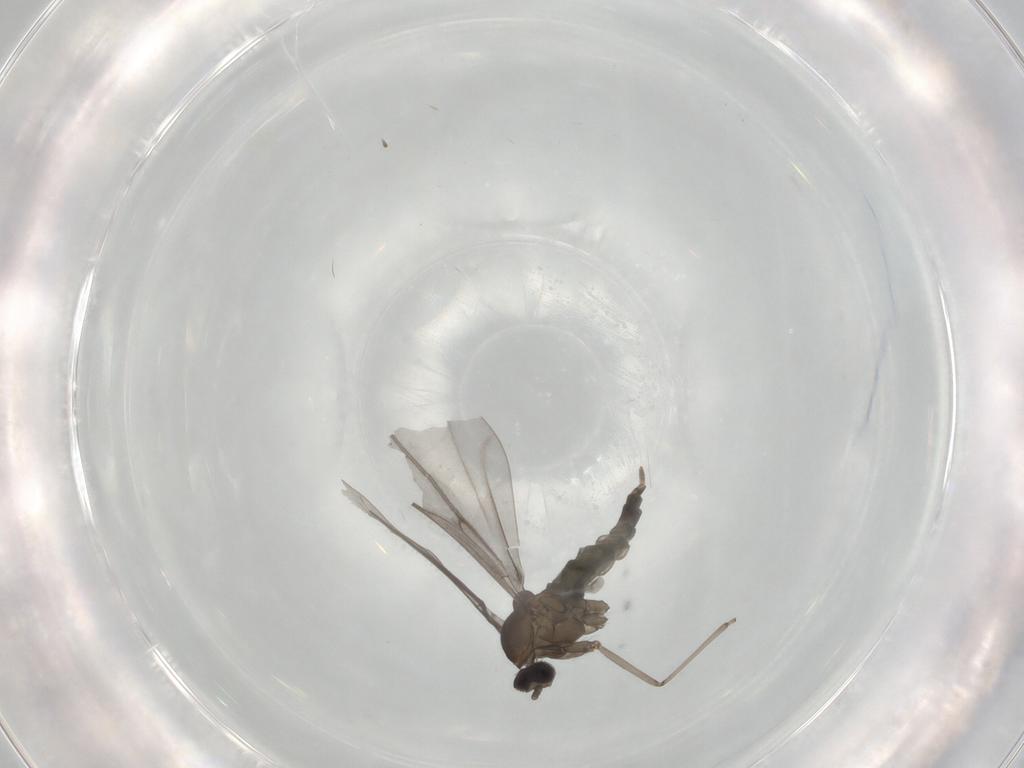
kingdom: Animalia
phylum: Arthropoda
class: Insecta
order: Diptera
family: Cecidomyiidae
